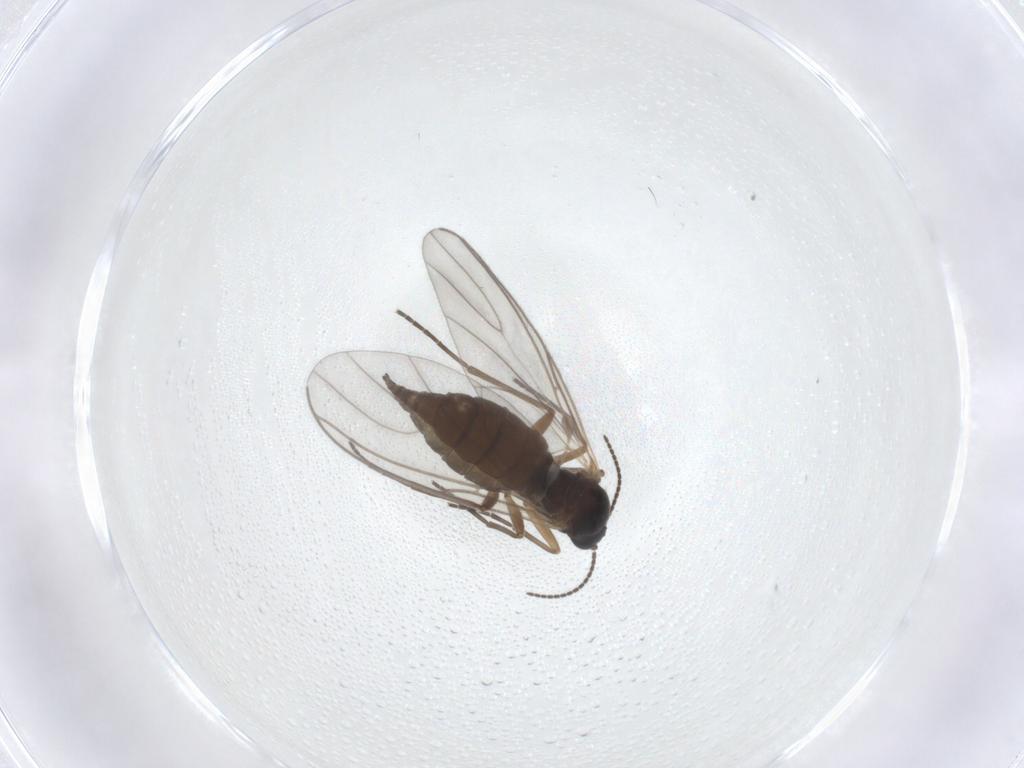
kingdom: Animalia
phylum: Arthropoda
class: Insecta
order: Diptera
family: Sciaridae
